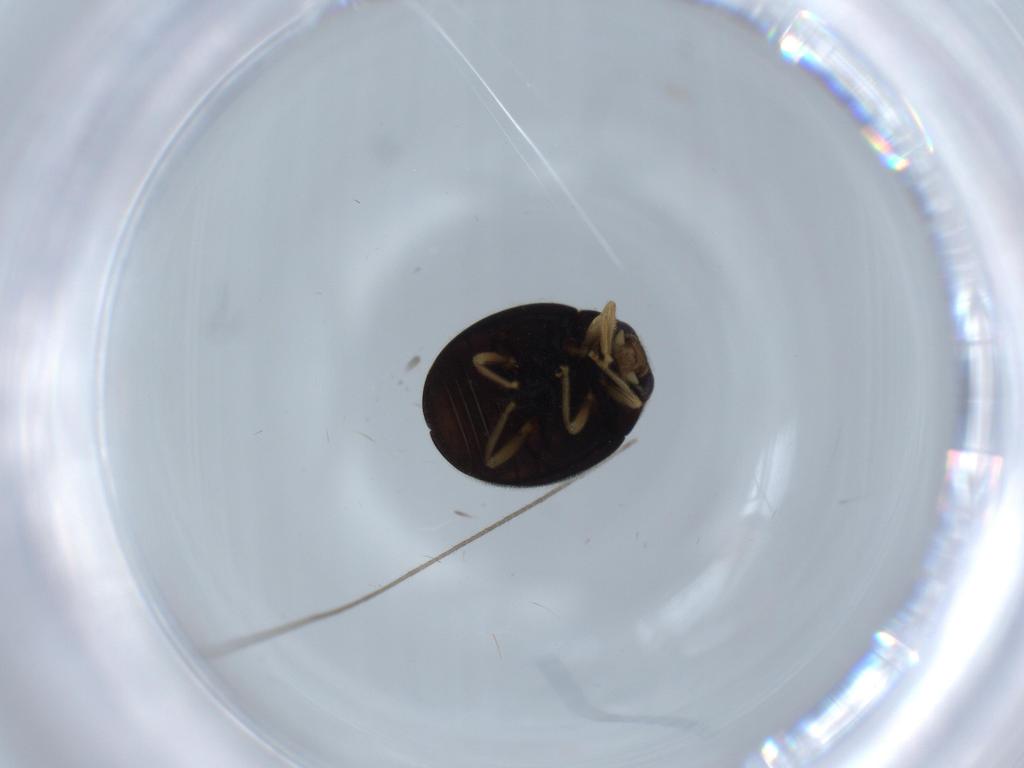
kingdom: Animalia
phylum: Arthropoda
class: Insecta
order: Coleoptera
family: Coccinellidae
